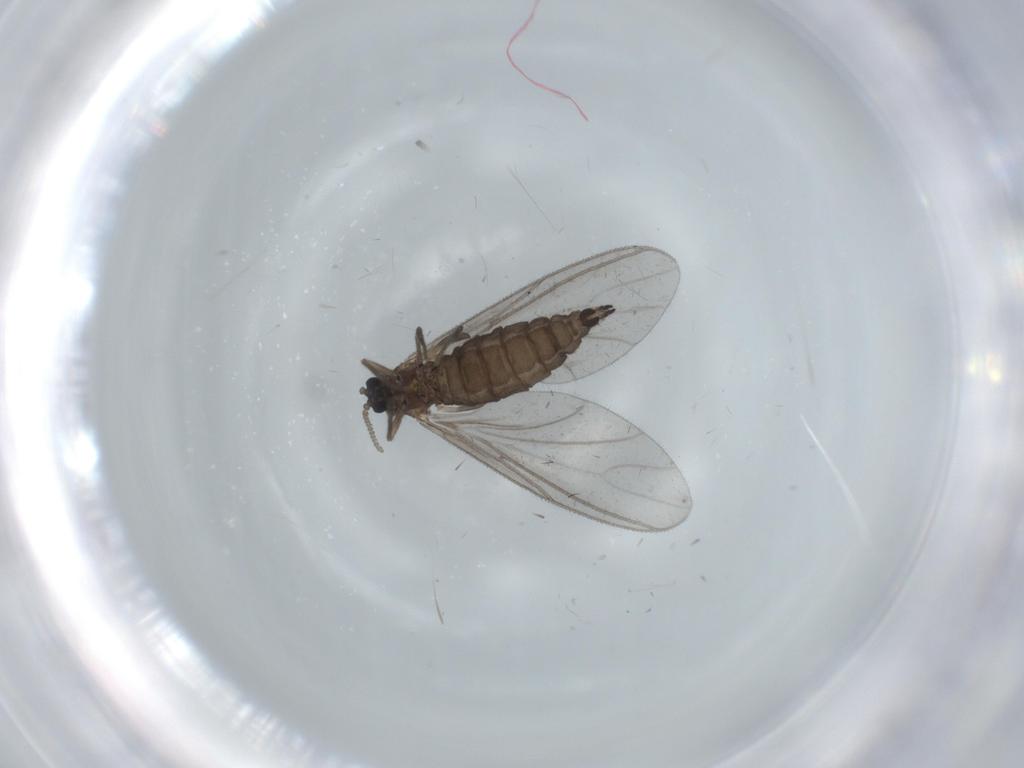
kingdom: Animalia
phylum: Arthropoda
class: Insecta
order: Diptera
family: Sciaridae
